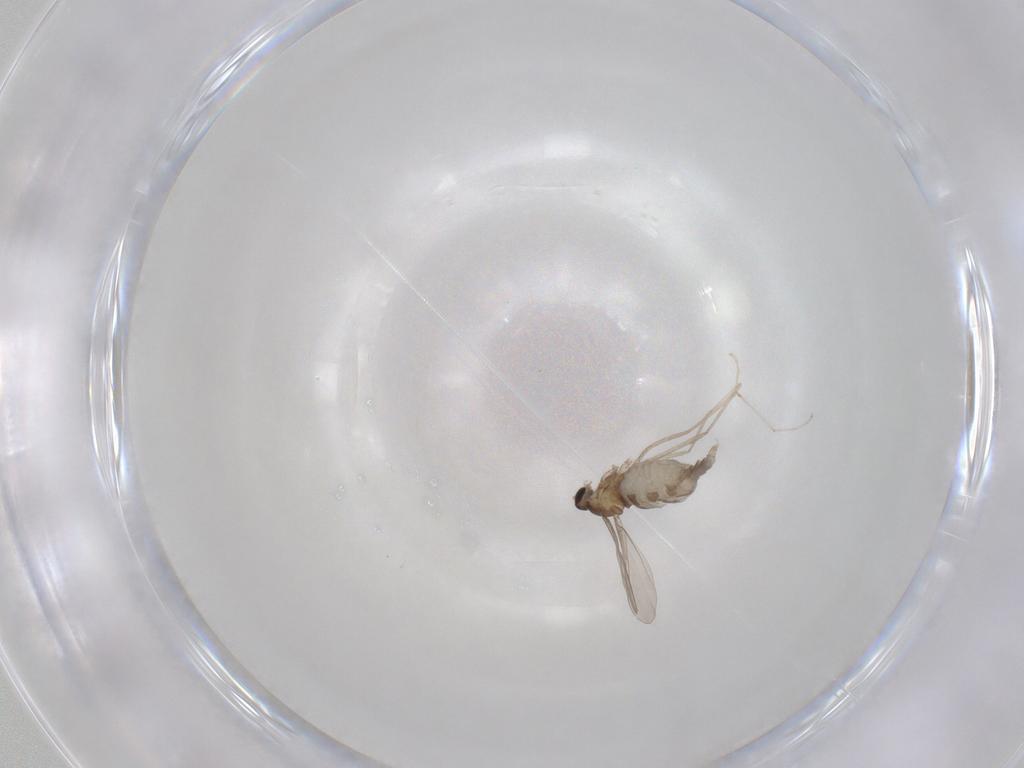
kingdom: Animalia
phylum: Arthropoda
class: Insecta
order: Diptera
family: Cecidomyiidae
